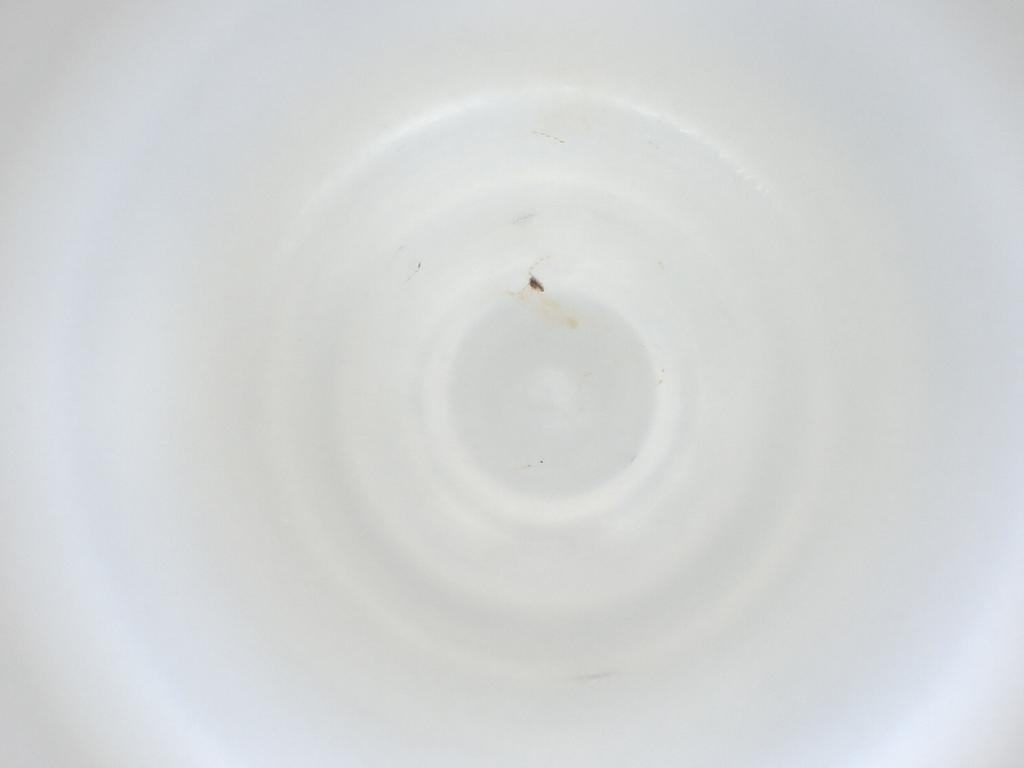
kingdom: Animalia
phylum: Arthropoda
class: Insecta
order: Diptera
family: Cecidomyiidae
